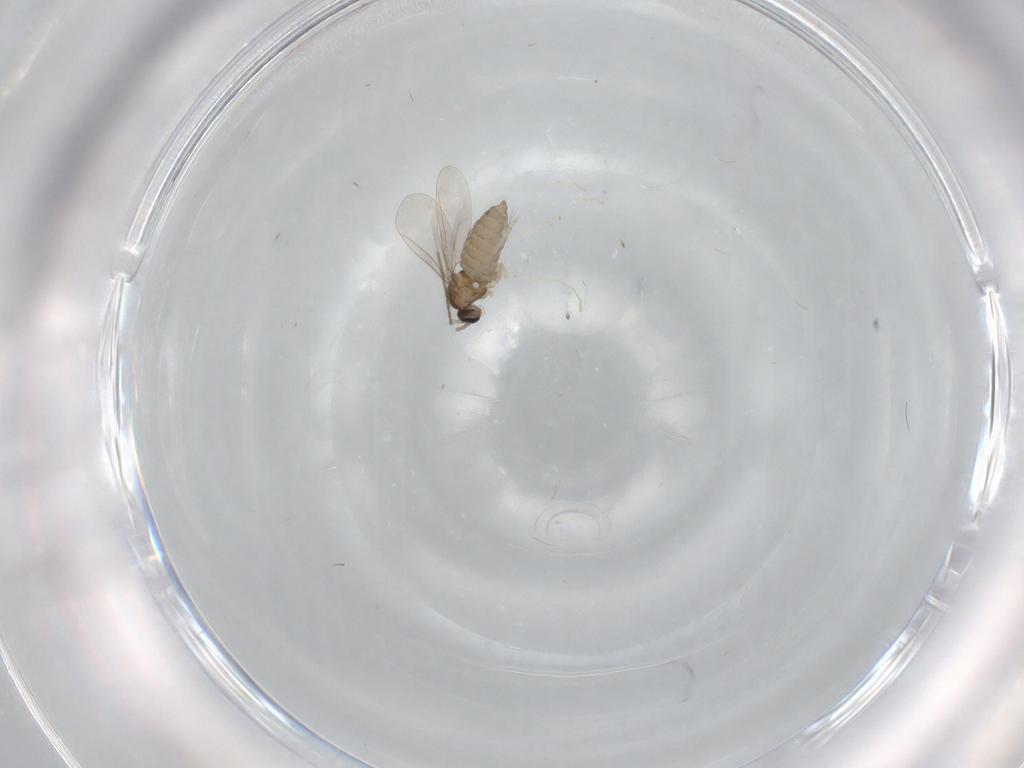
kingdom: Animalia
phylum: Arthropoda
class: Insecta
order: Diptera
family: Chironomidae
